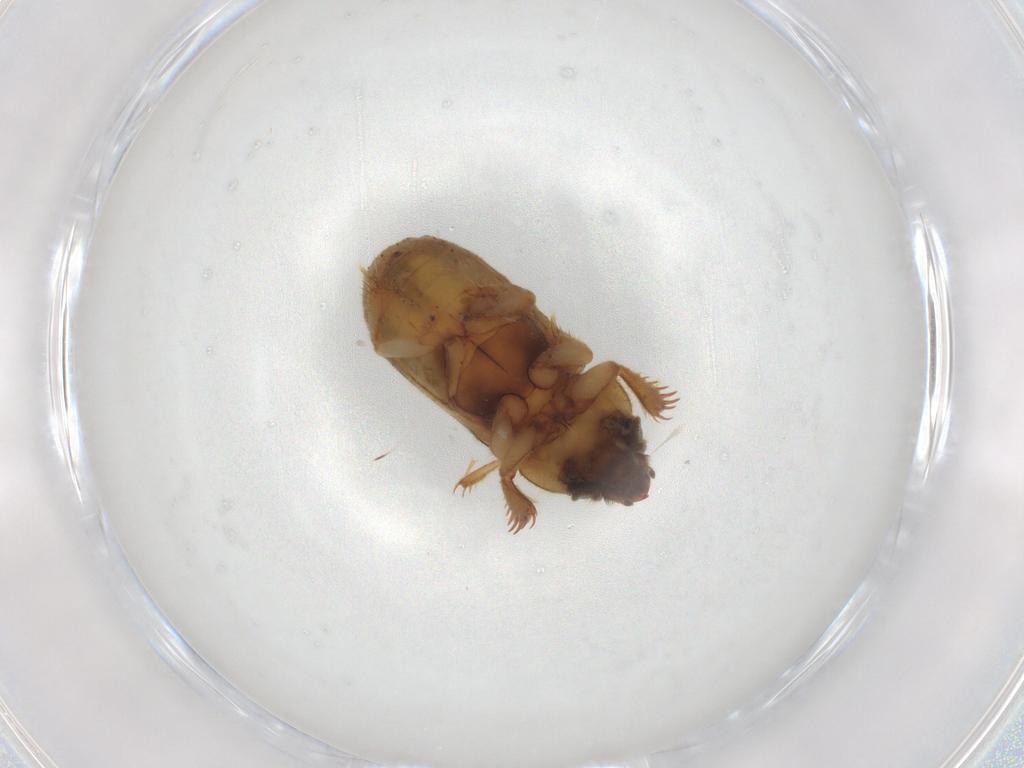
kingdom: Animalia
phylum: Arthropoda
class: Insecta
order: Coleoptera
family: Heteroceridae
